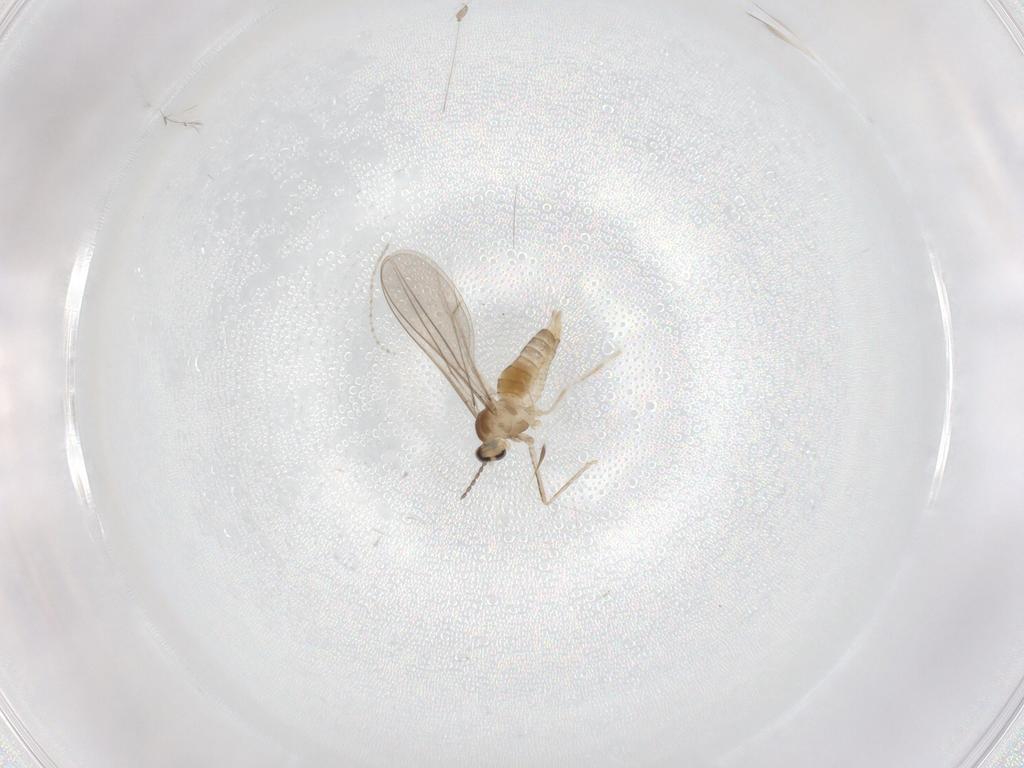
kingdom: Animalia
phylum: Arthropoda
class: Insecta
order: Diptera
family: Cecidomyiidae
